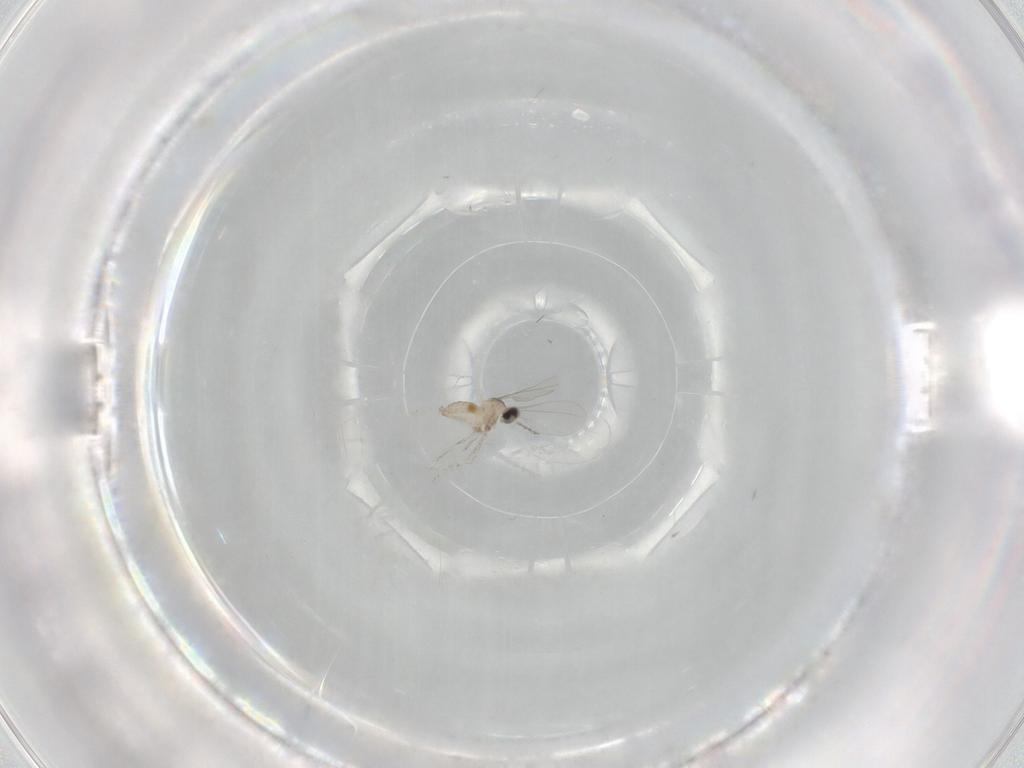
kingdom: Animalia
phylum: Arthropoda
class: Insecta
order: Diptera
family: Cecidomyiidae
